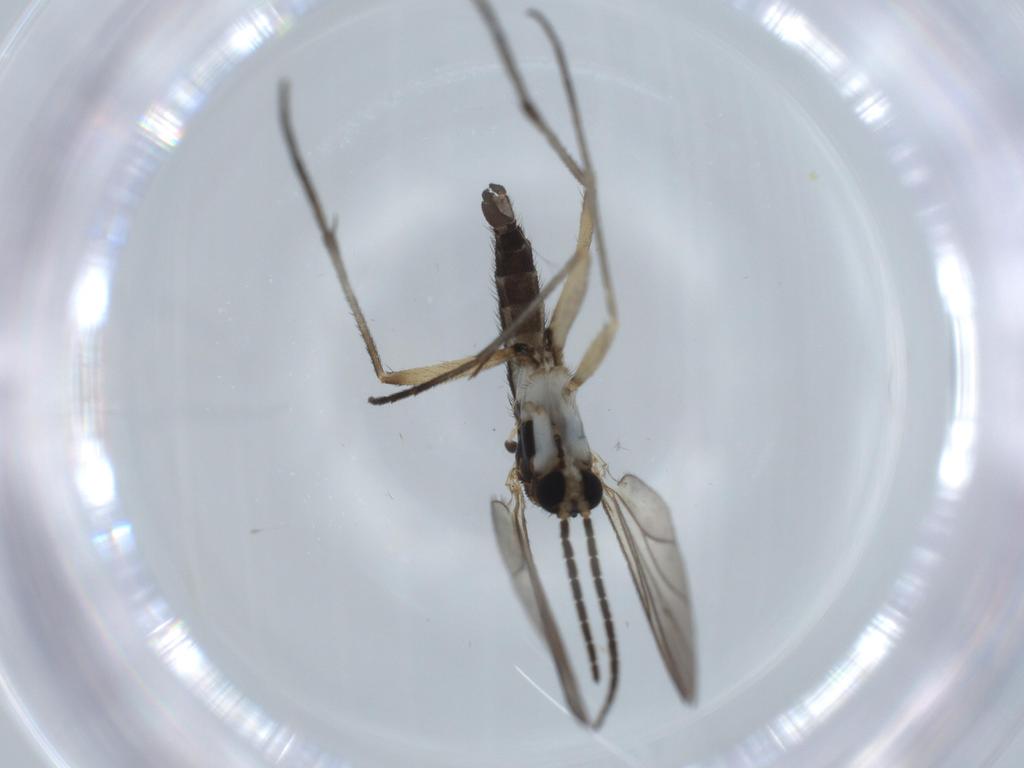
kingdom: Animalia
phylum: Arthropoda
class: Insecta
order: Diptera
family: Sciaridae
